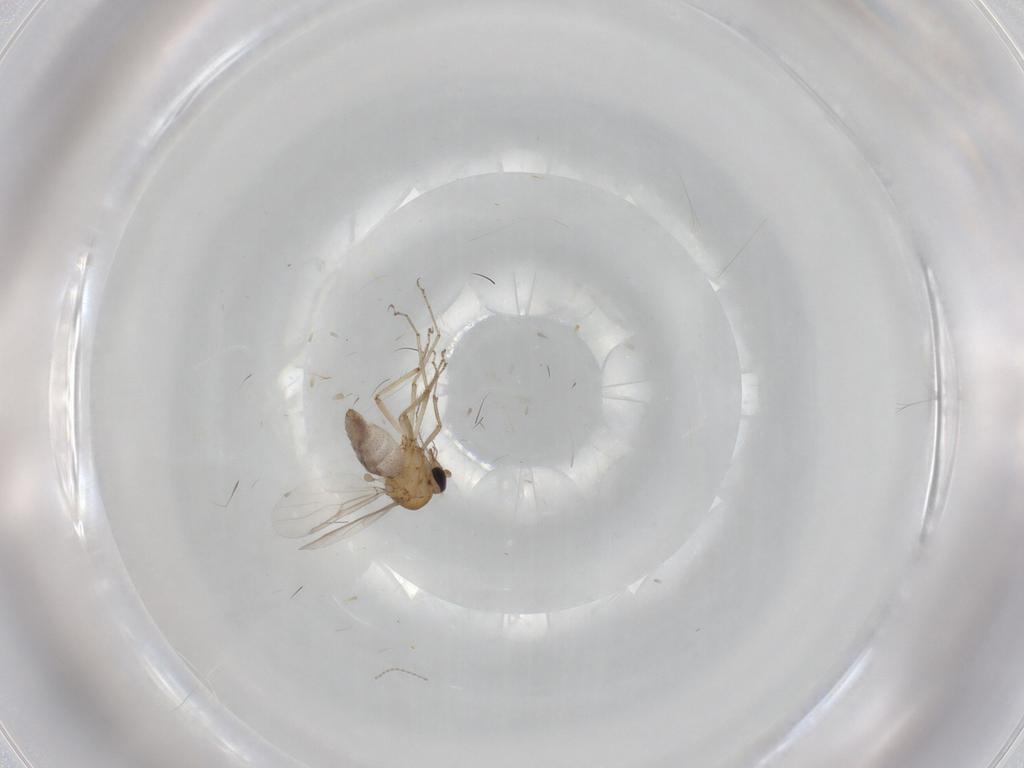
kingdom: Animalia
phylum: Arthropoda
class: Insecta
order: Diptera
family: Ceratopogonidae
